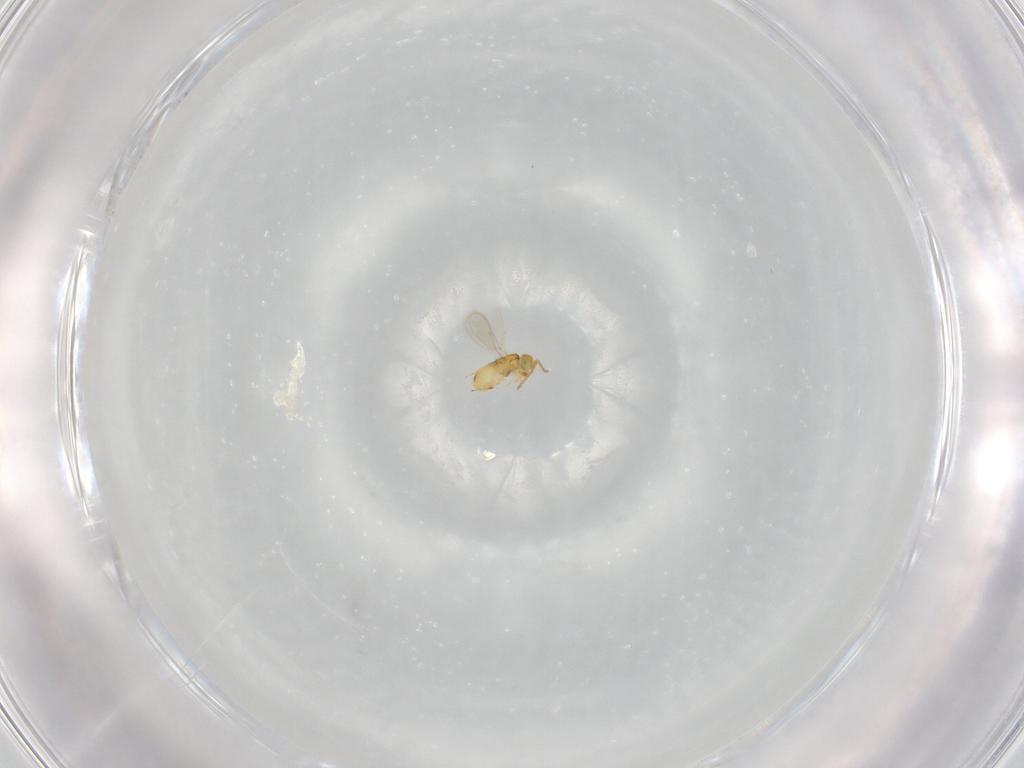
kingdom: Animalia
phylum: Arthropoda
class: Insecta
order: Hymenoptera
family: Aphelinidae
